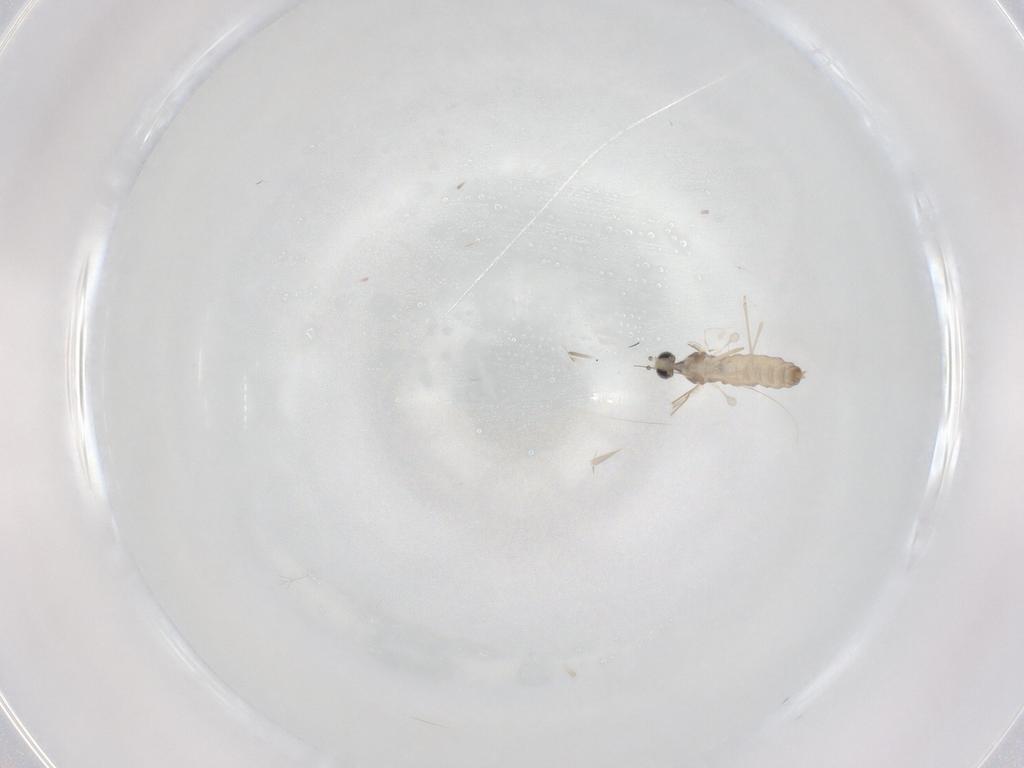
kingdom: Animalia
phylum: Arthropoda
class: Insecta
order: Diptera
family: Cecidomyiidae
